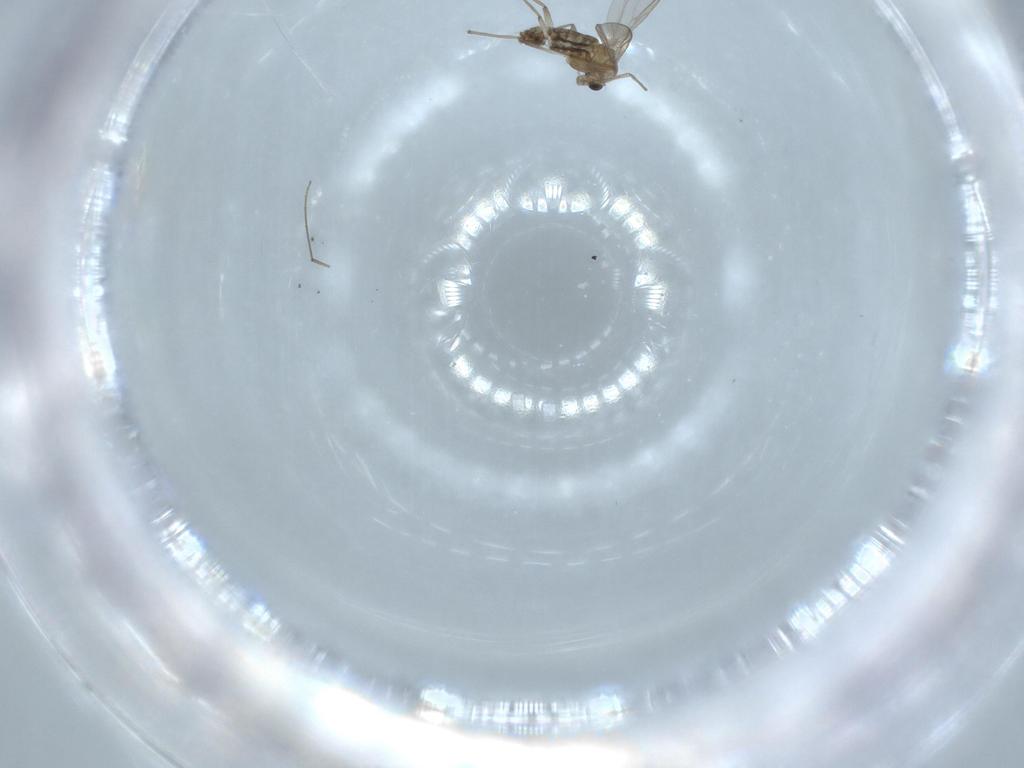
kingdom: Animalia
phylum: Arthropoda
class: Insecta
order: Diptera
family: Chironomidae
